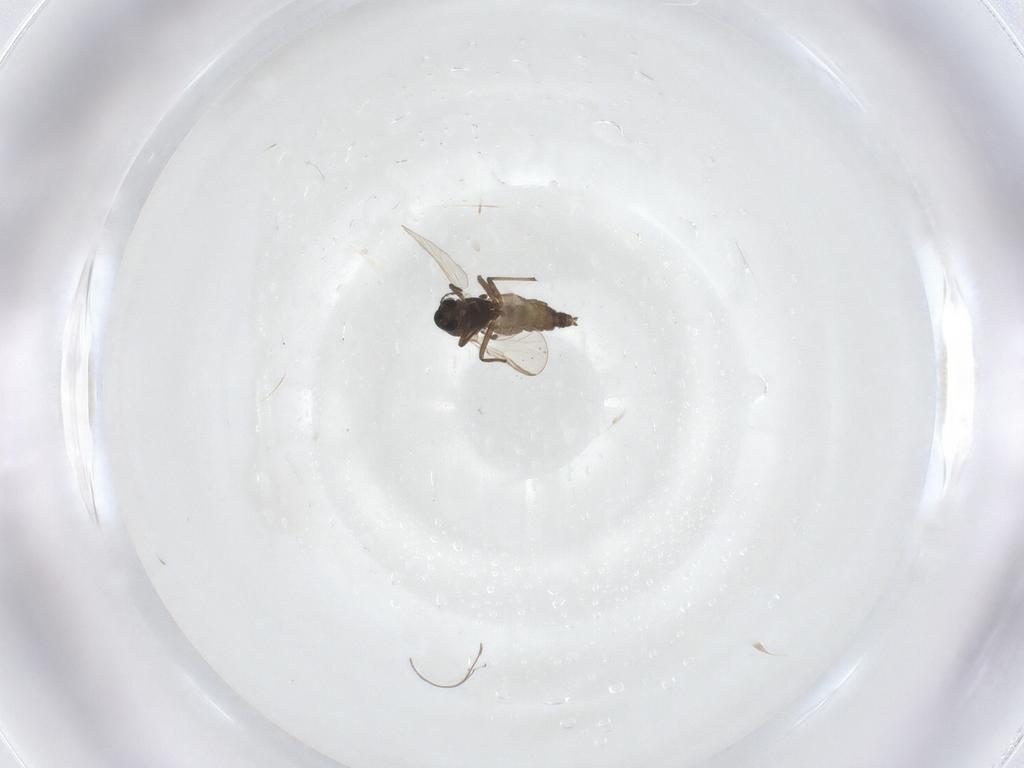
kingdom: Animalia
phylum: Arthropoda
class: Insecta
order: Diptera
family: Chironomidae
